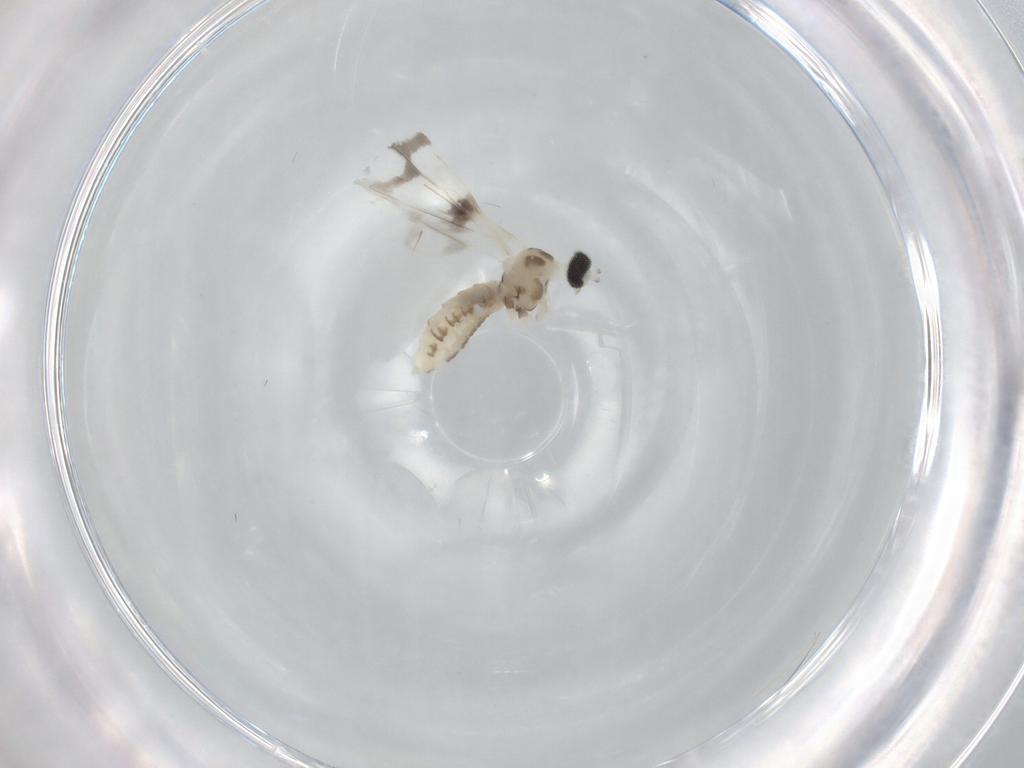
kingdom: Animalia
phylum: Arthropoda
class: Insecta
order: Diptera
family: Cecidomyiidae
